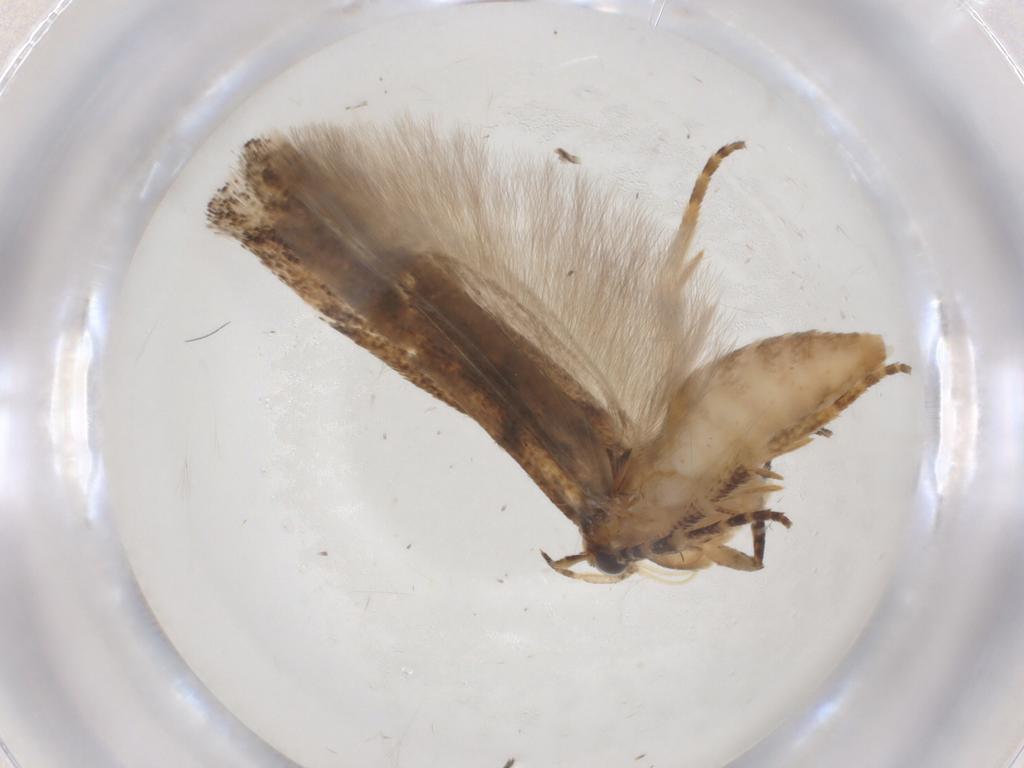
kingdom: Animalia
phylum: Arthropoda
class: Insecta
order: Lepidoptera
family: Gelechiidae
